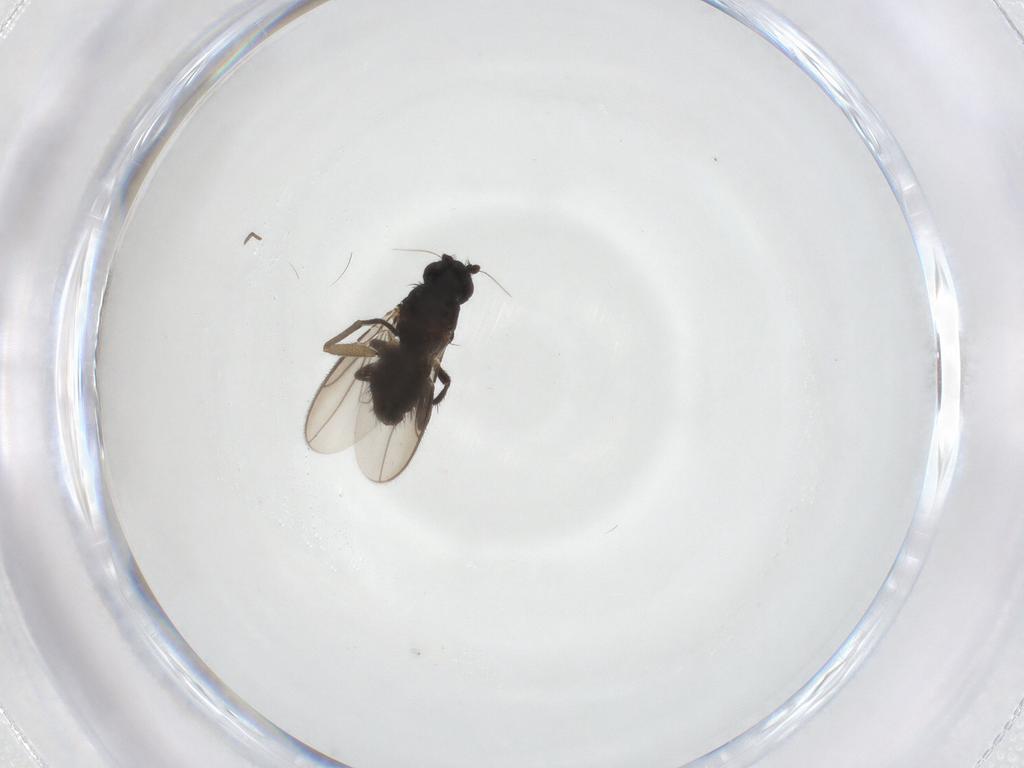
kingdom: Animalia
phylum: Arthropoda
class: Insecta
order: Diptera
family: Sphaeroceridae
